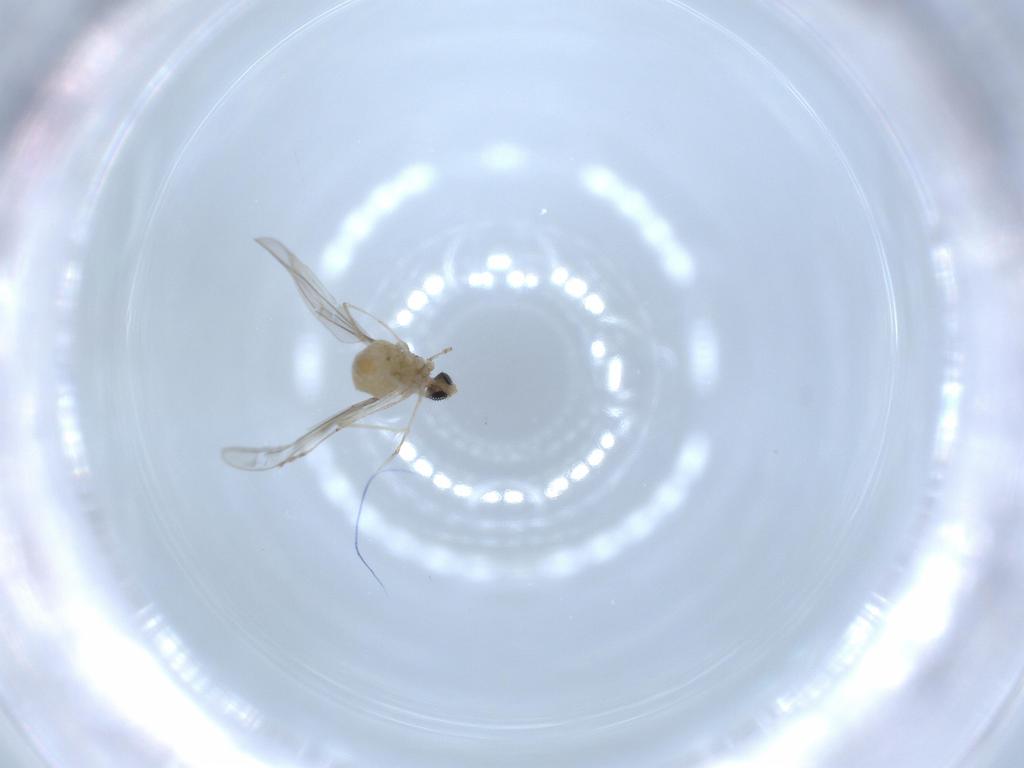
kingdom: Animalia
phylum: Arthropoda
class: Insecta
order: Diptera
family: Cecidomyiidae
